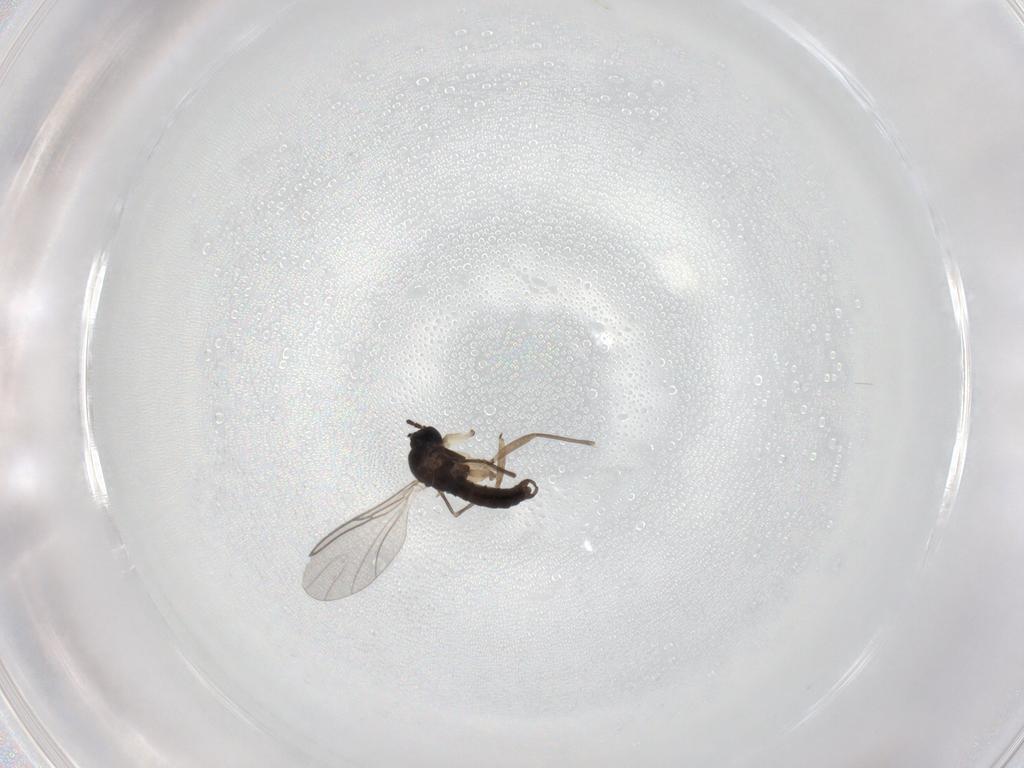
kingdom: Animalia
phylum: Arthropoda
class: Insecta
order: Diptera
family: Sciaridae
